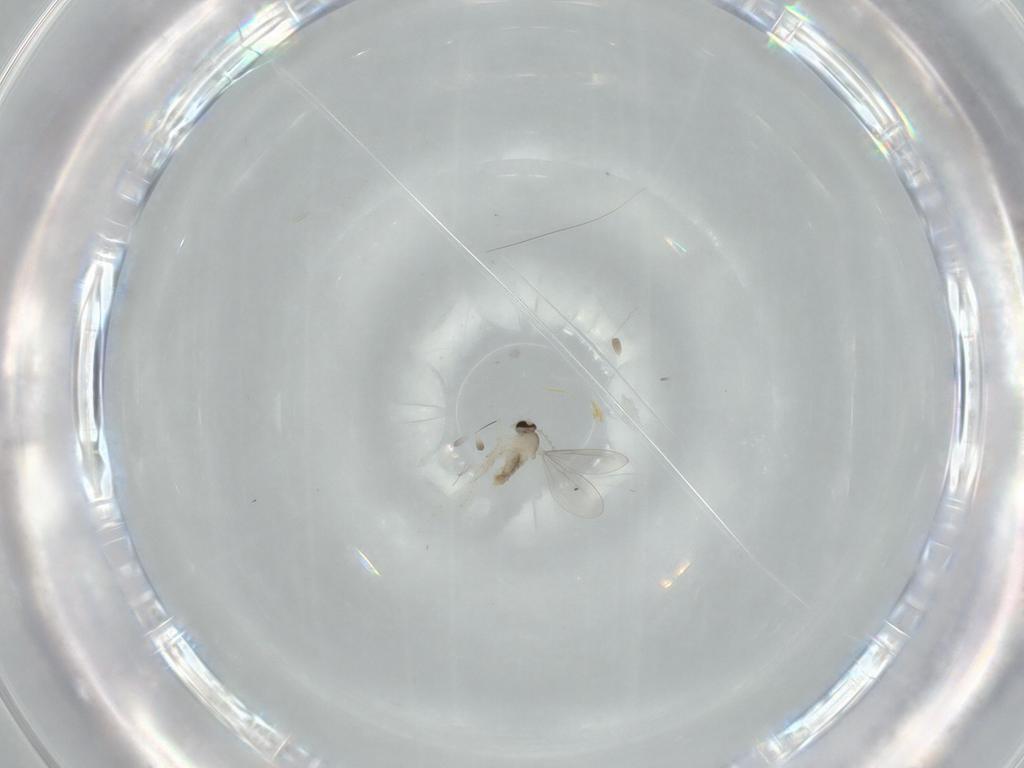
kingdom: Animalia
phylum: Arthropoda
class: Insecta
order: Diptera
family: Cecidomyiidae
